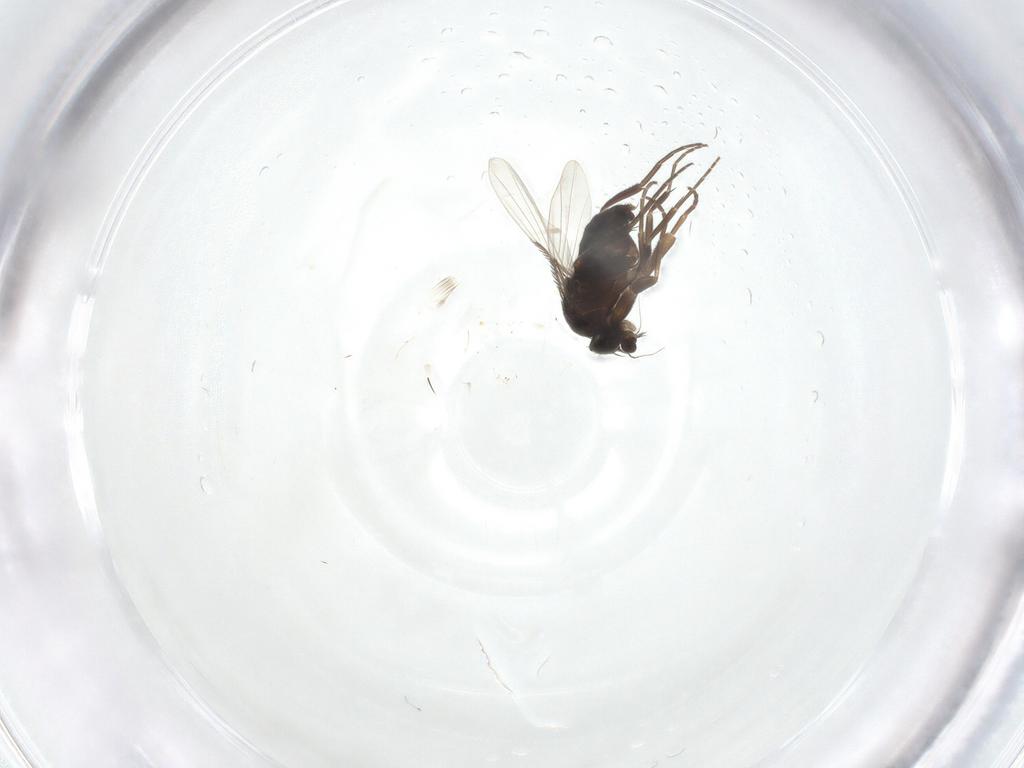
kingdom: Animalia
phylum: Arthropoda
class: Insecta
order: Diptera
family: Phoridae
